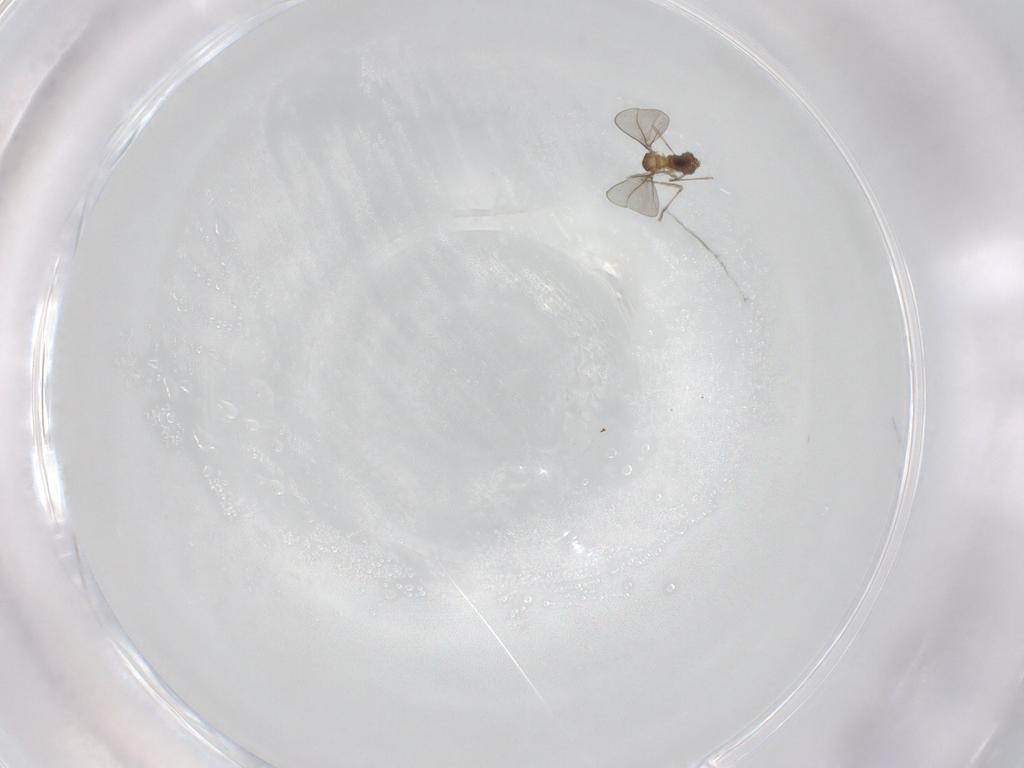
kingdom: Animalia
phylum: Arthropoda
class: Insecta
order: Diptera
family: Cecidomyiidae
